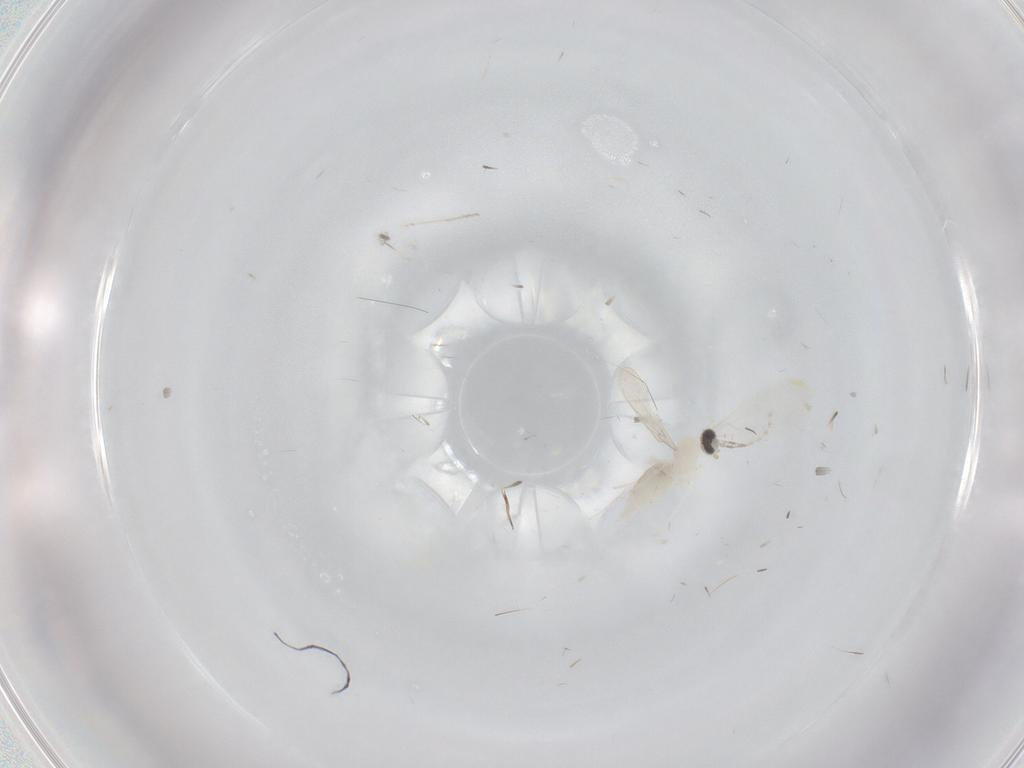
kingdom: Animalia
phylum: Arthropoda
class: Insecta
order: Diptera
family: Cecidomyiidae
